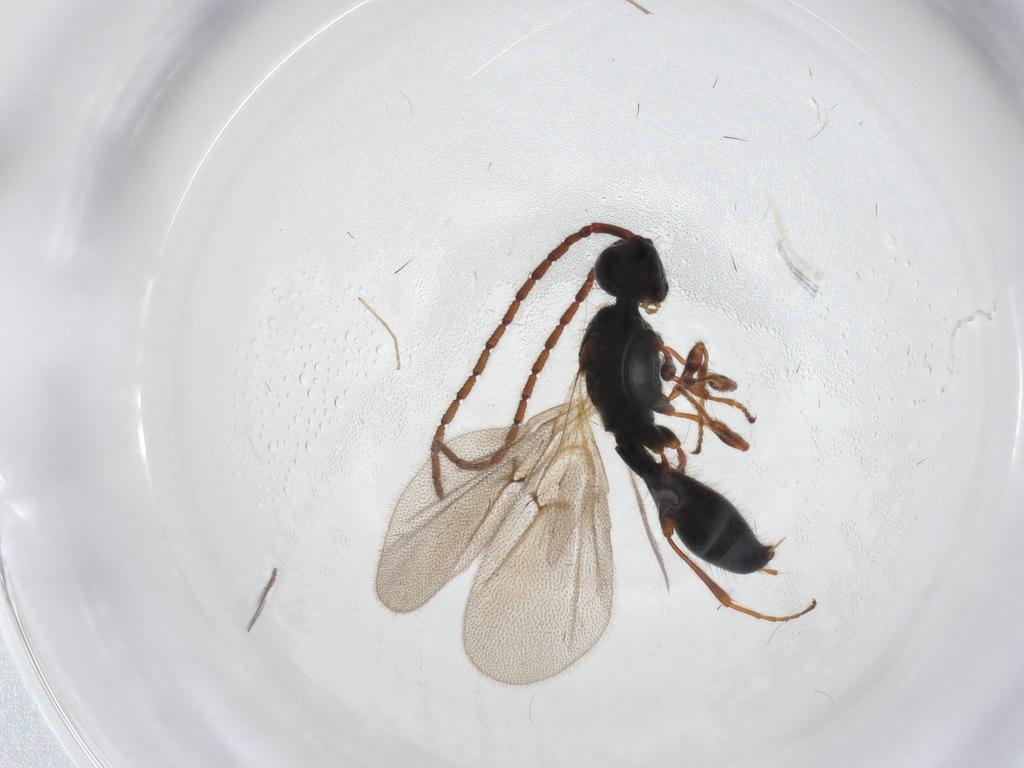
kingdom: Animalia
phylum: Arthropoda
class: Insecta
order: Hymenoptera
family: Diapriidae
